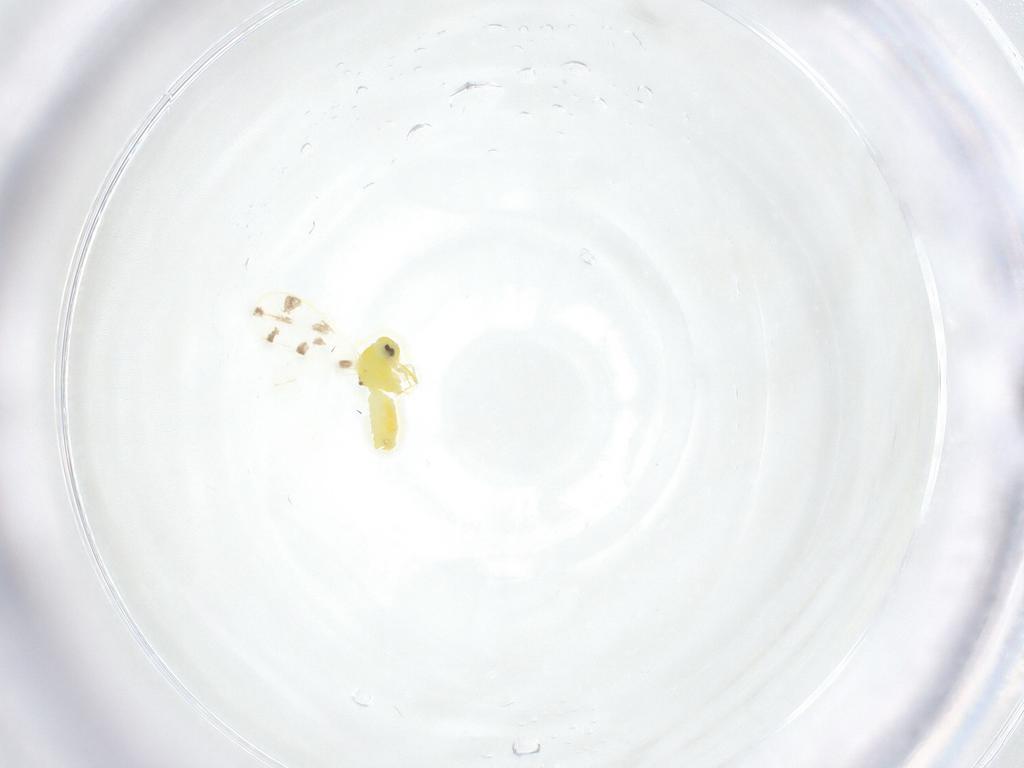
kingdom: Animalia
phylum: Arthropoda
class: Insecta
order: Hemiptera
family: Aleyrodidae
